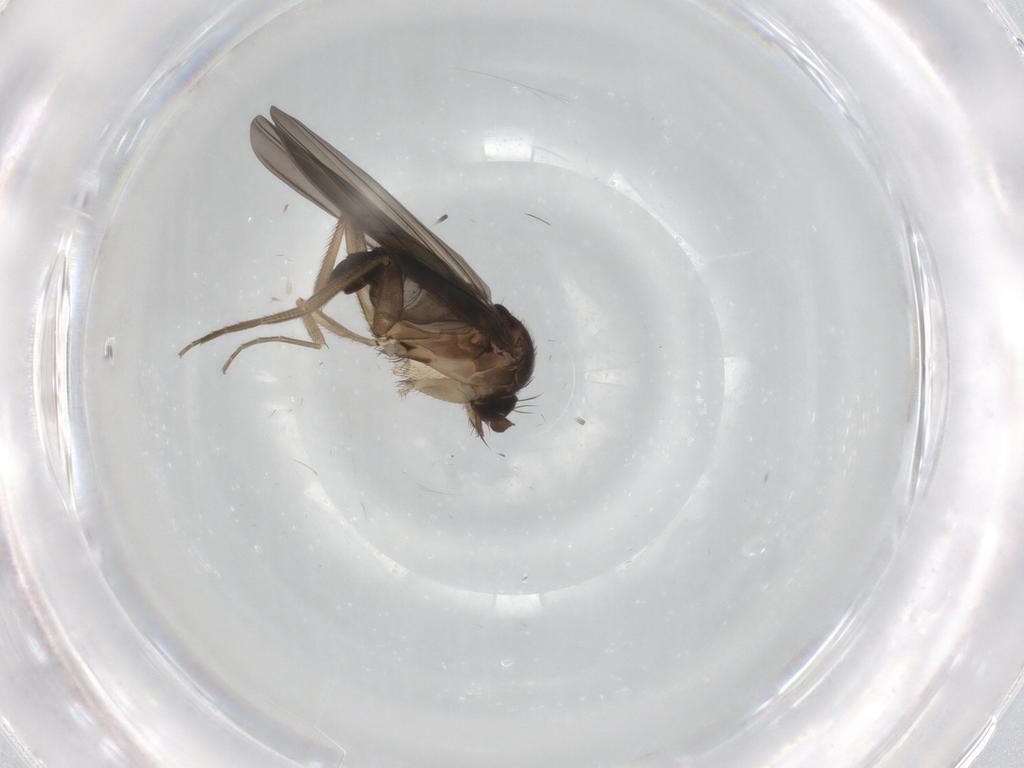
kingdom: Animalia
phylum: Arthropoda
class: Insecta
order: Diptera
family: Phoridae
